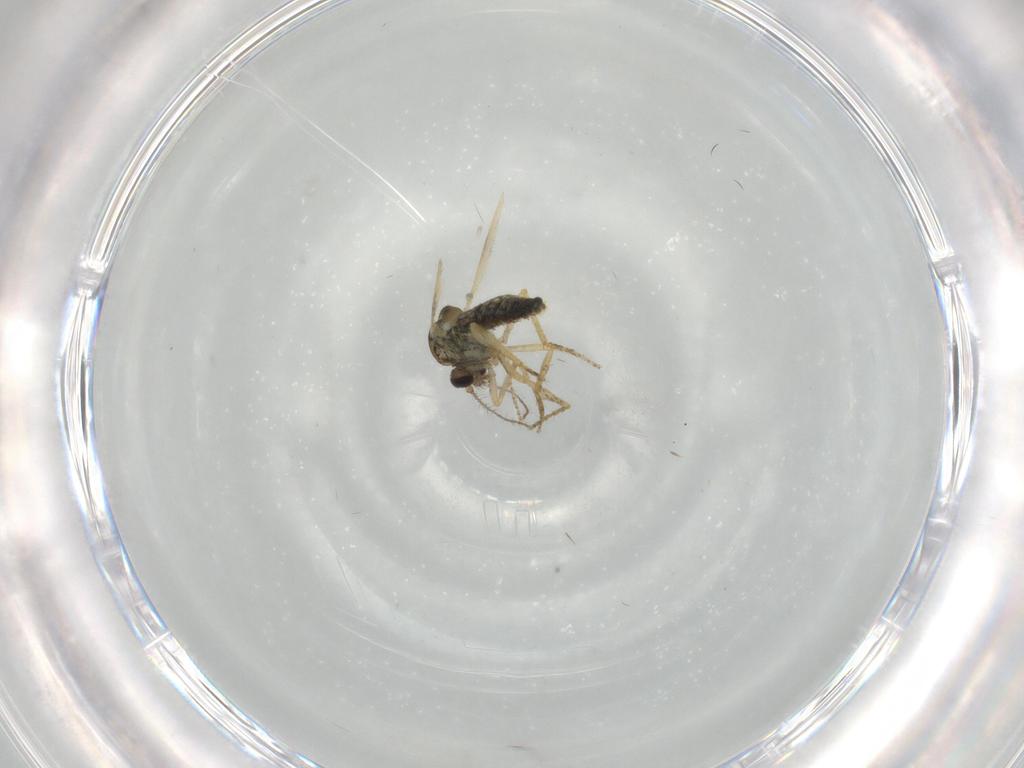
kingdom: Animalia
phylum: Arthropoda
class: Insecta
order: Diptera
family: Ceratopogonidae
